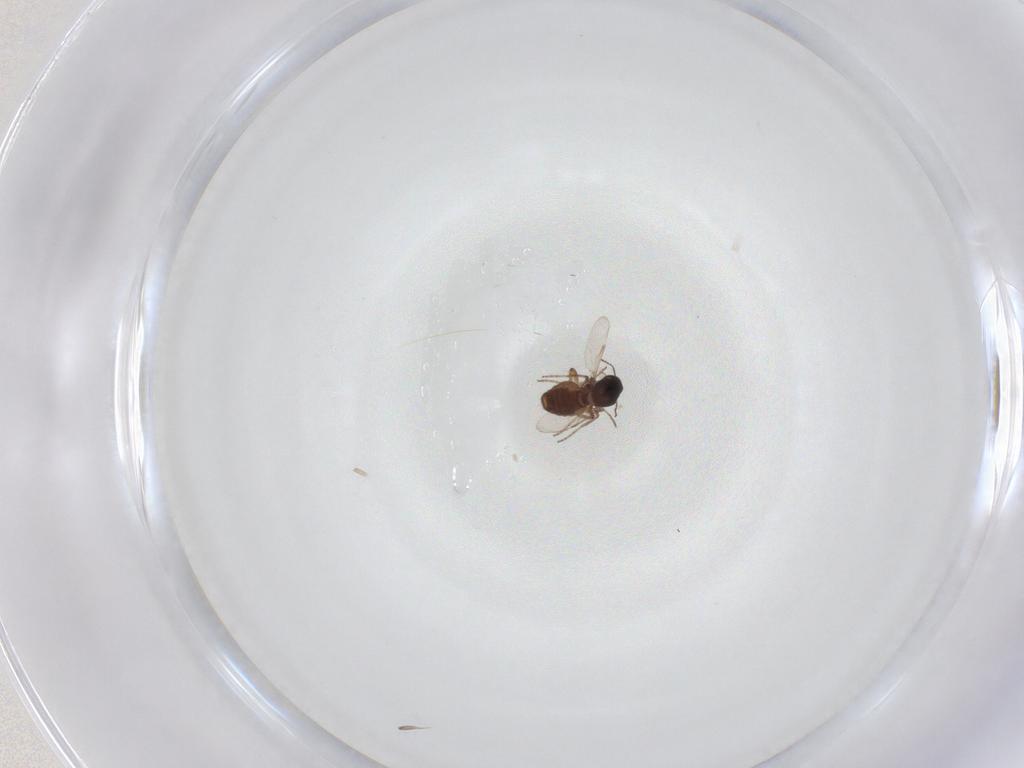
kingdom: Animalia
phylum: Arthropoda
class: Insecta
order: Diptera
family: Ceratopogonidae
